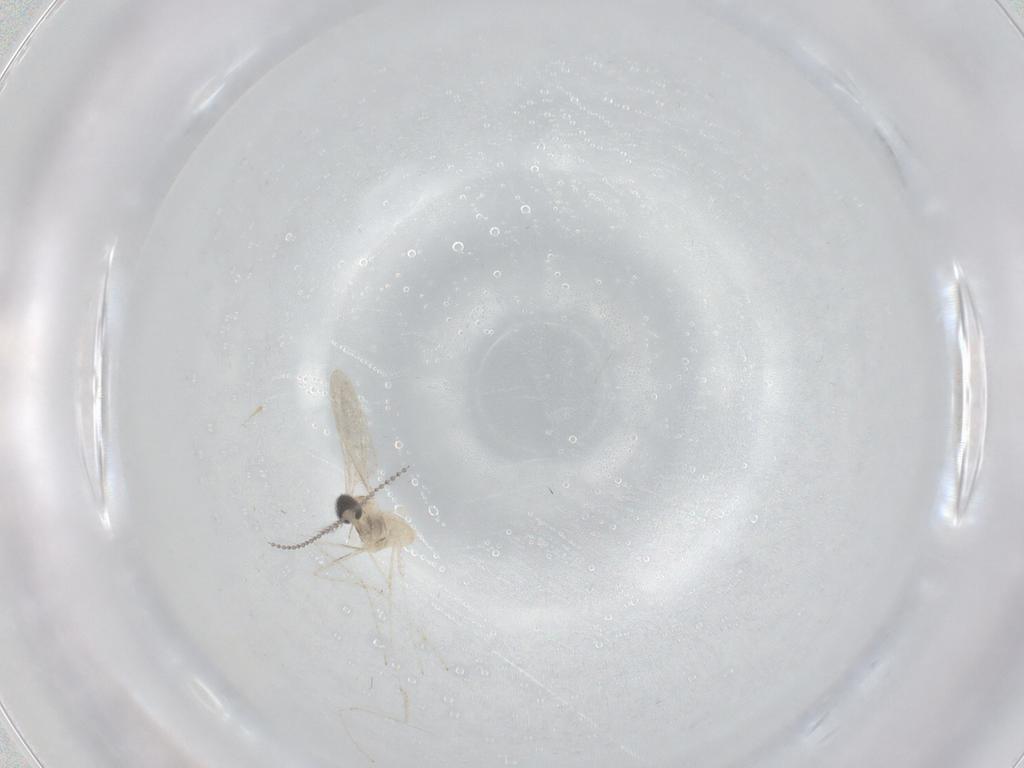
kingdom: Animalia
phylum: Arthropoda
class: Insecta
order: Diptera
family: Cecidomyiidae
